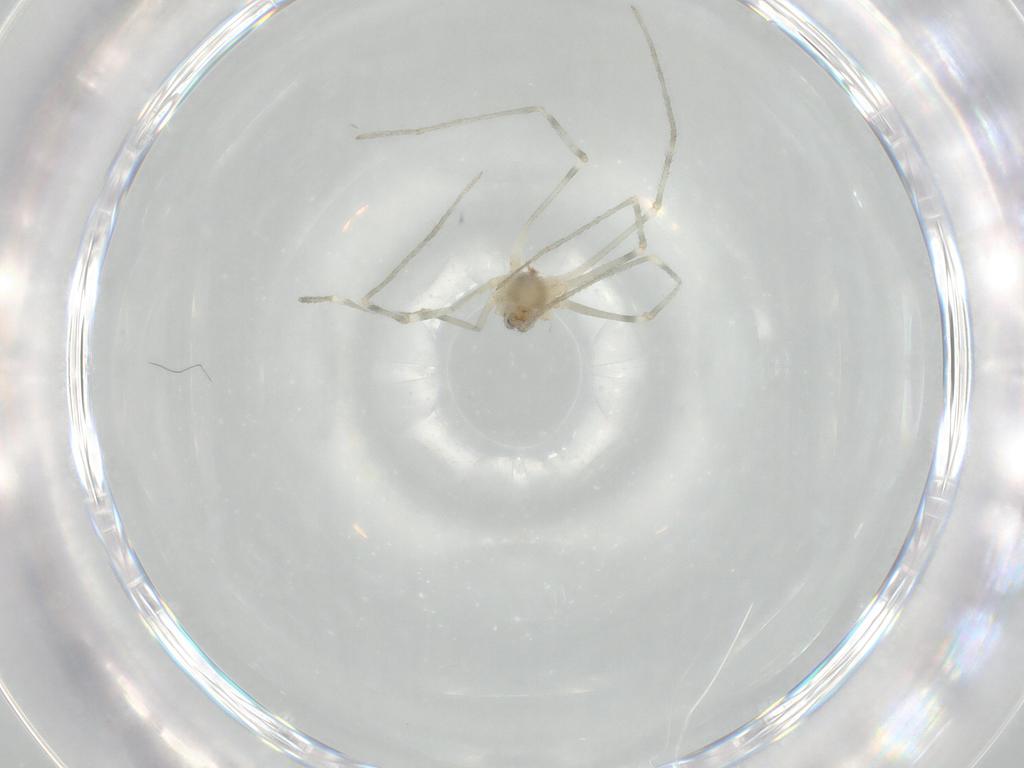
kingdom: Animalia
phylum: Arthropoda
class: Arachnida
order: Araneae
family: Pholcidae
